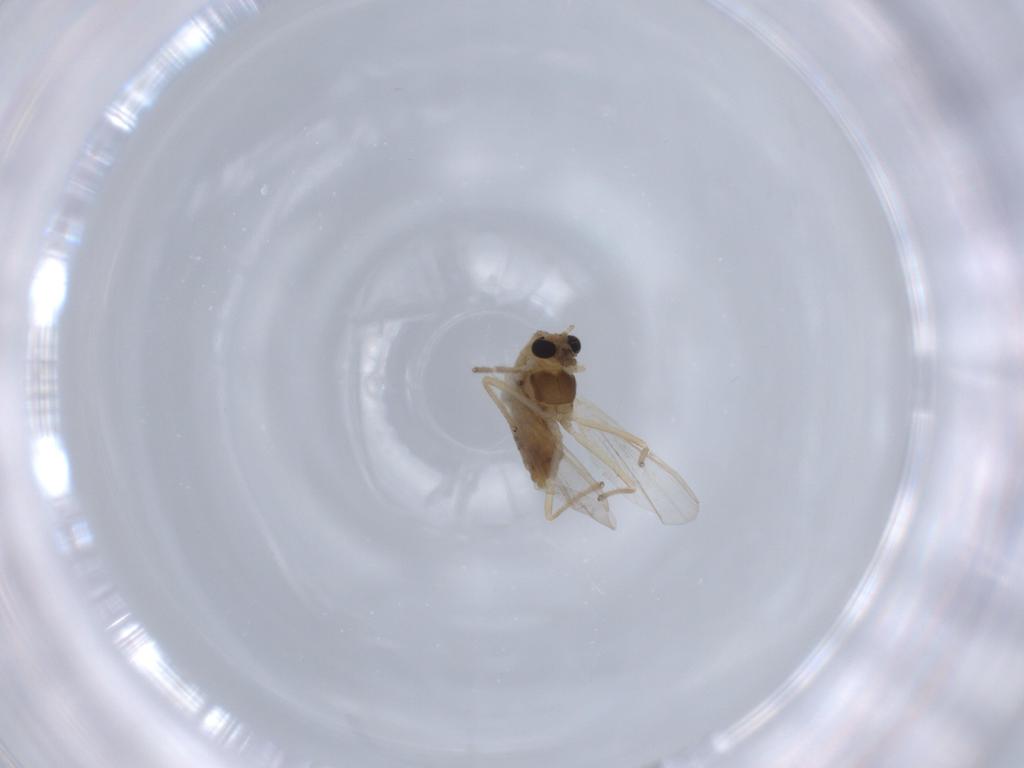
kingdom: Animalia
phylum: Arthropoda
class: Insecta
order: Diptera
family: Chironomidae
